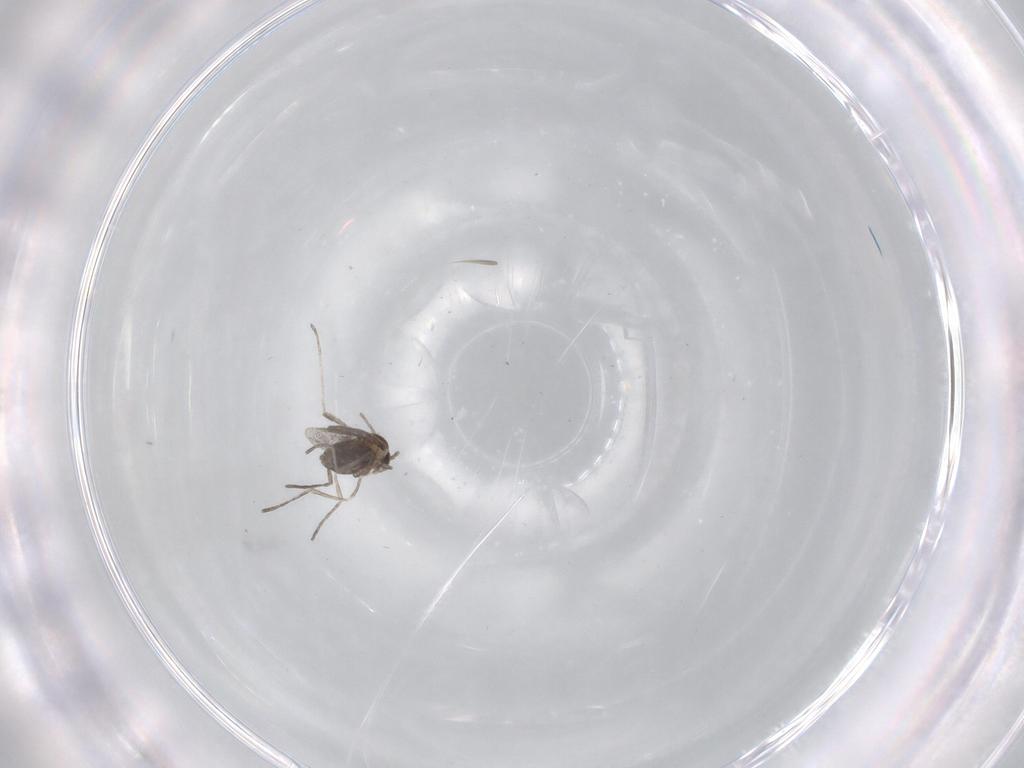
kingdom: Animalia
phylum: Arthropoda
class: Insecta
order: Diptera
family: Cecidomyiidae
